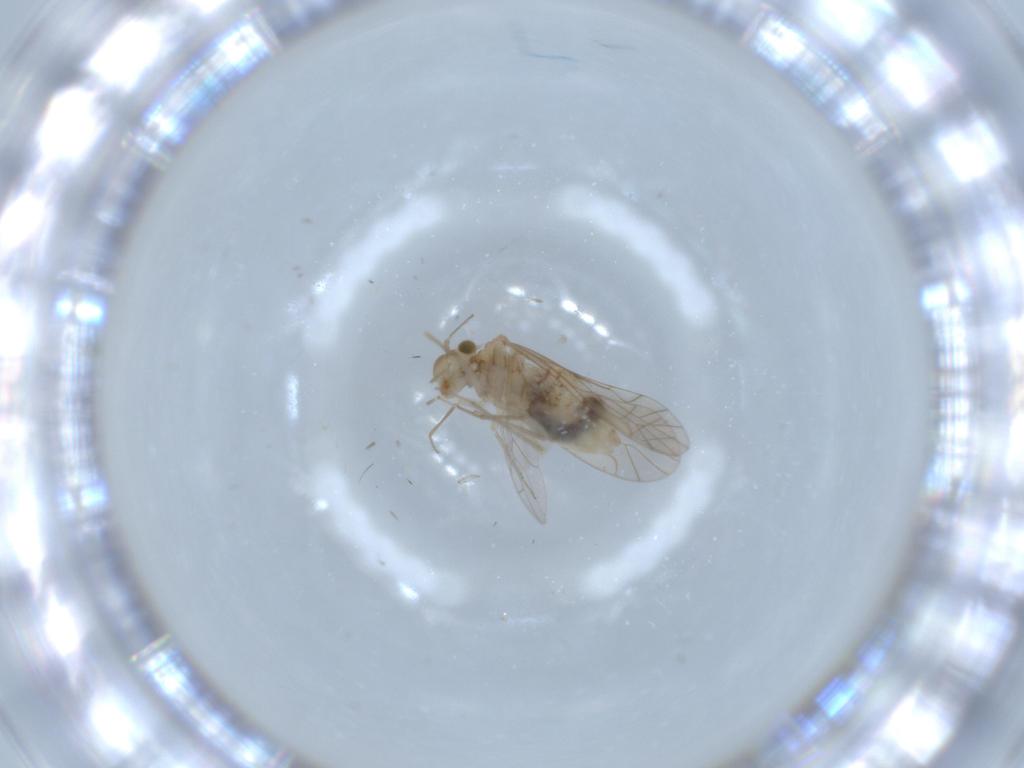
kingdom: Animalia
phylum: Arthropoda
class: Insecta
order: Psocodea
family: Lachesillidae
